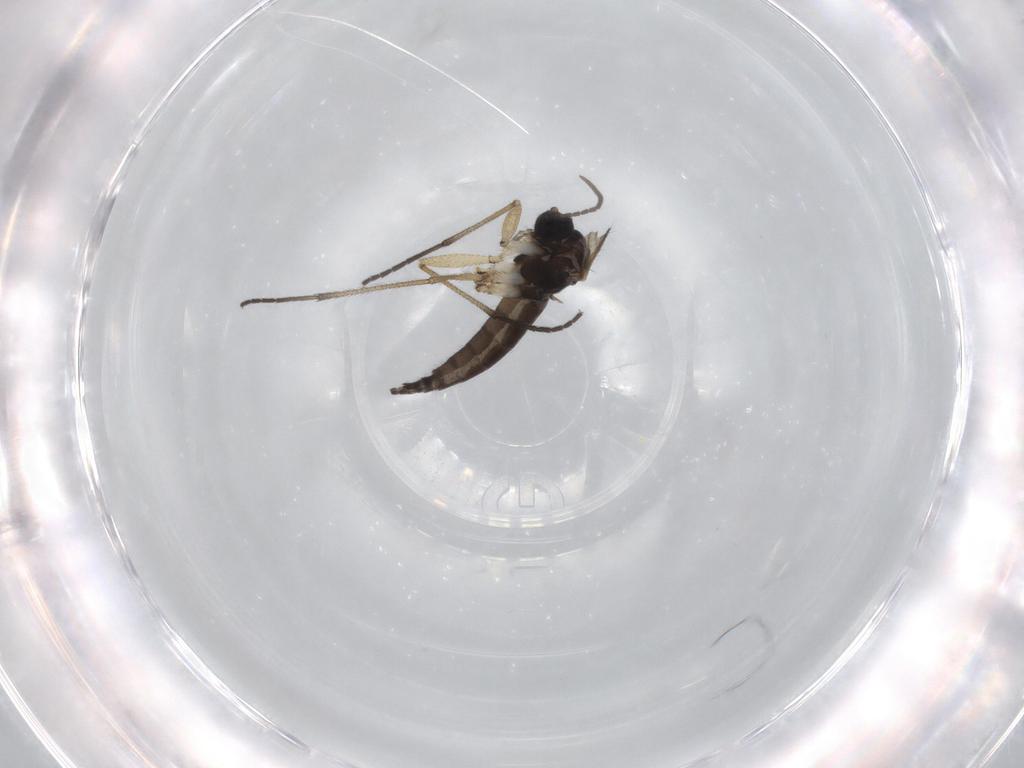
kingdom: Animalia
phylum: Arthropoda
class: Insecta
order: Diptera
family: Sciaridae
